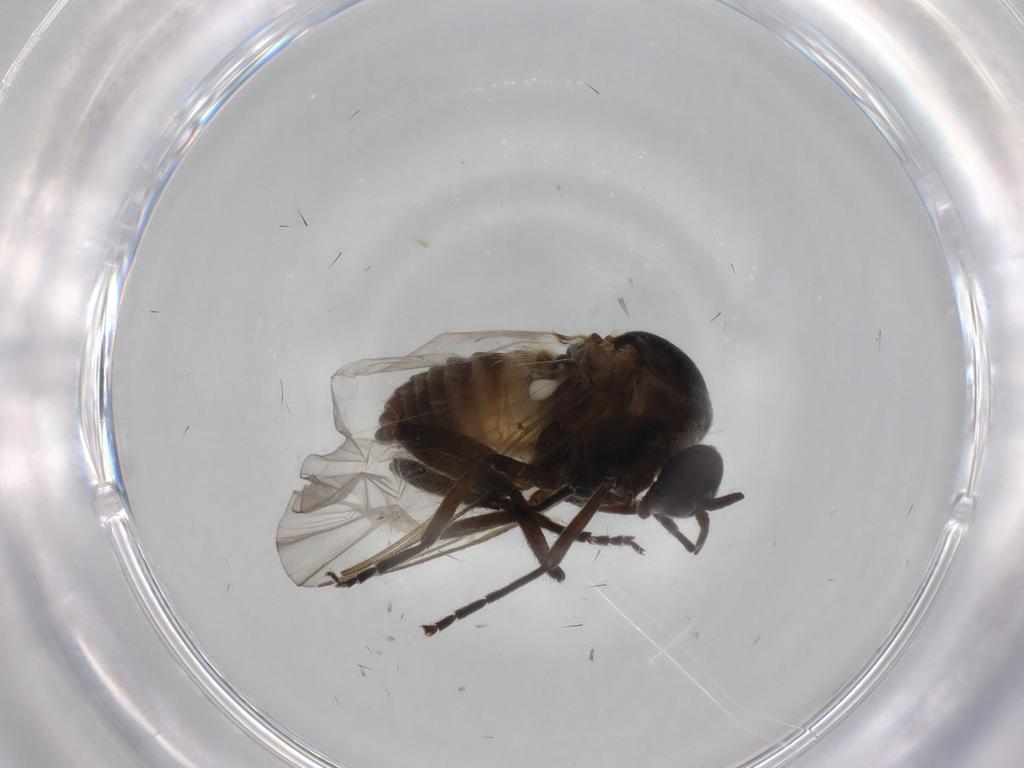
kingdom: Animalia
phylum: Arthropoda
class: Insecta
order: Diptera
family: Simuliidae
